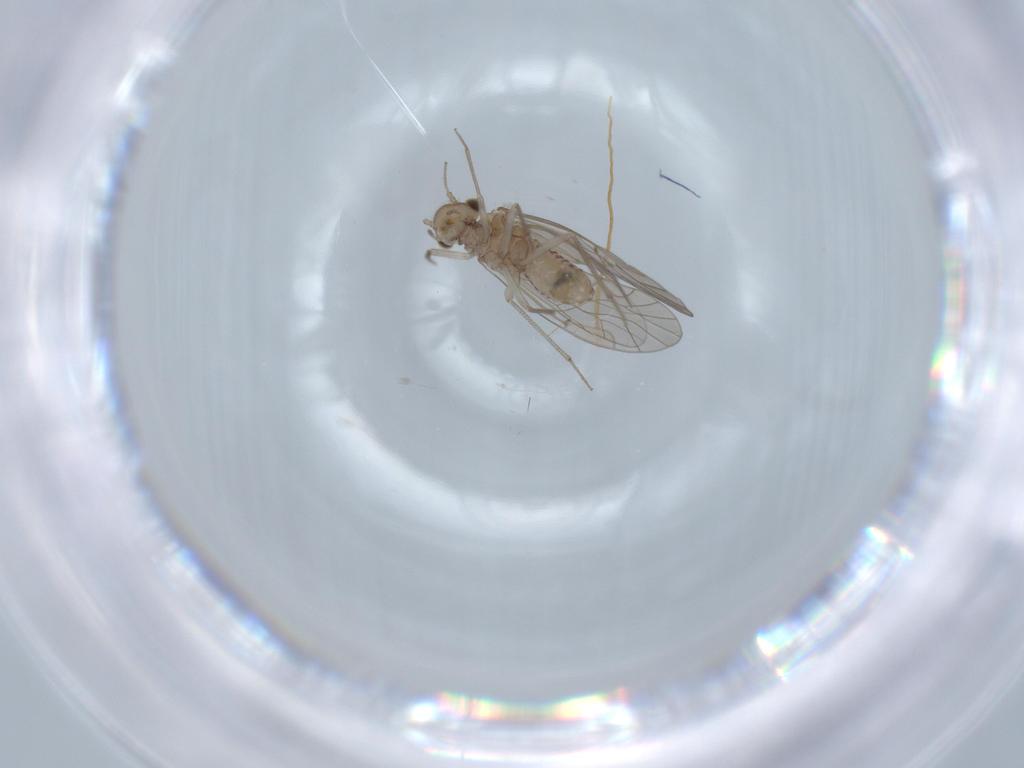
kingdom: Animalia
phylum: Arthropoda
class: Insecta
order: Psocodea
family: Lachesillidae
